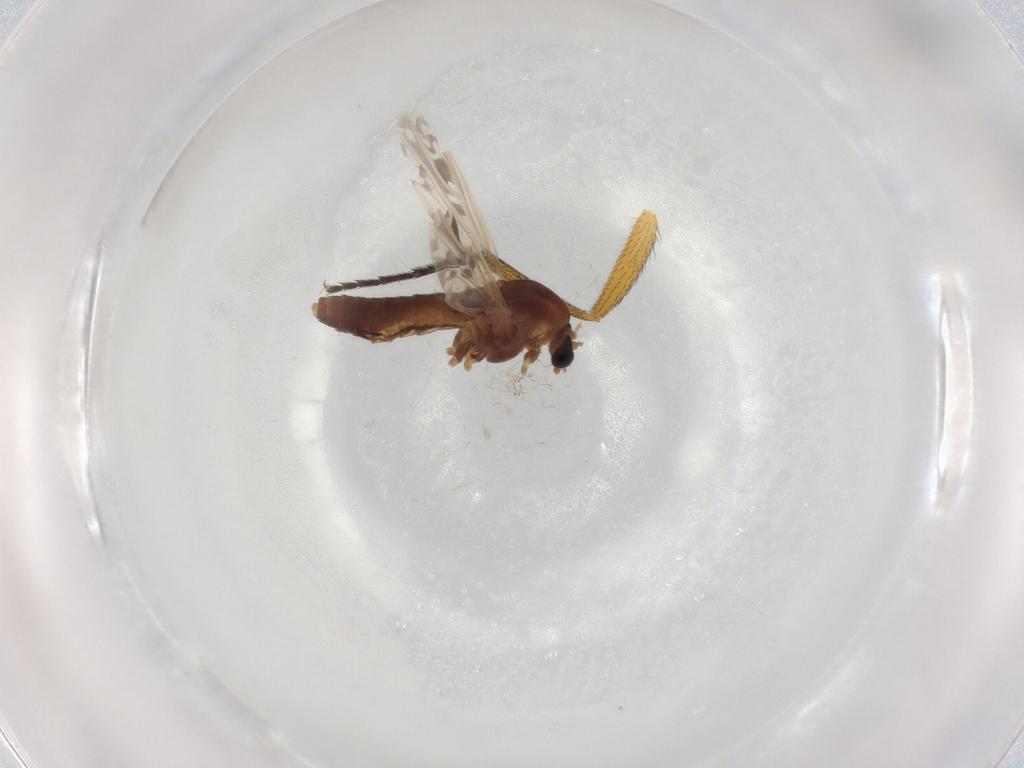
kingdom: Animalia
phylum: Arthropoda
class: Insecta
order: Diptera
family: Chironomidae
